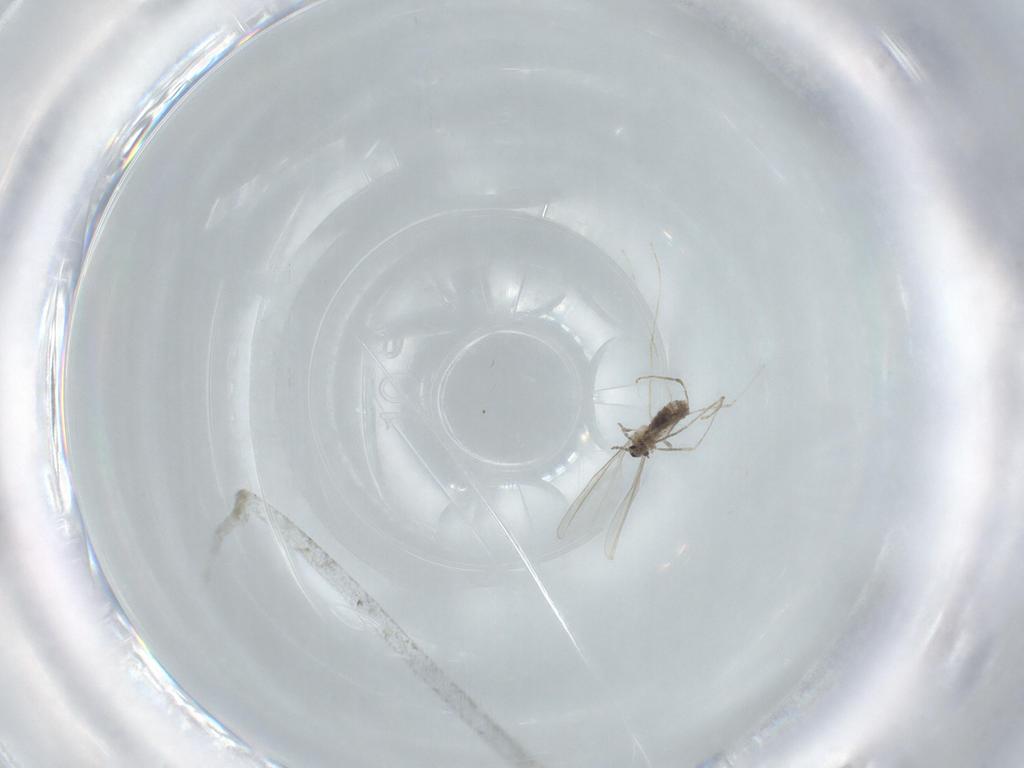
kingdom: Animalia
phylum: Arthropoda
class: Insecta
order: Diptera
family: Cecidomyiidae
